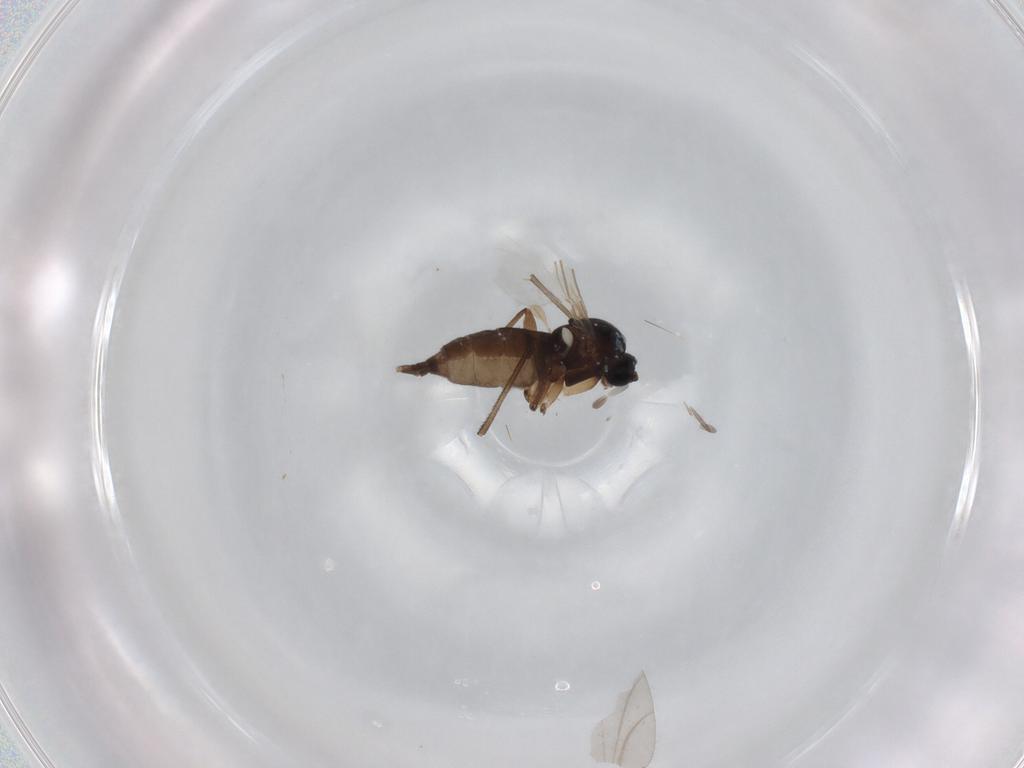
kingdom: Animalia
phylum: Arthropoda
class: Insecta
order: Diptera
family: Sciaridae
